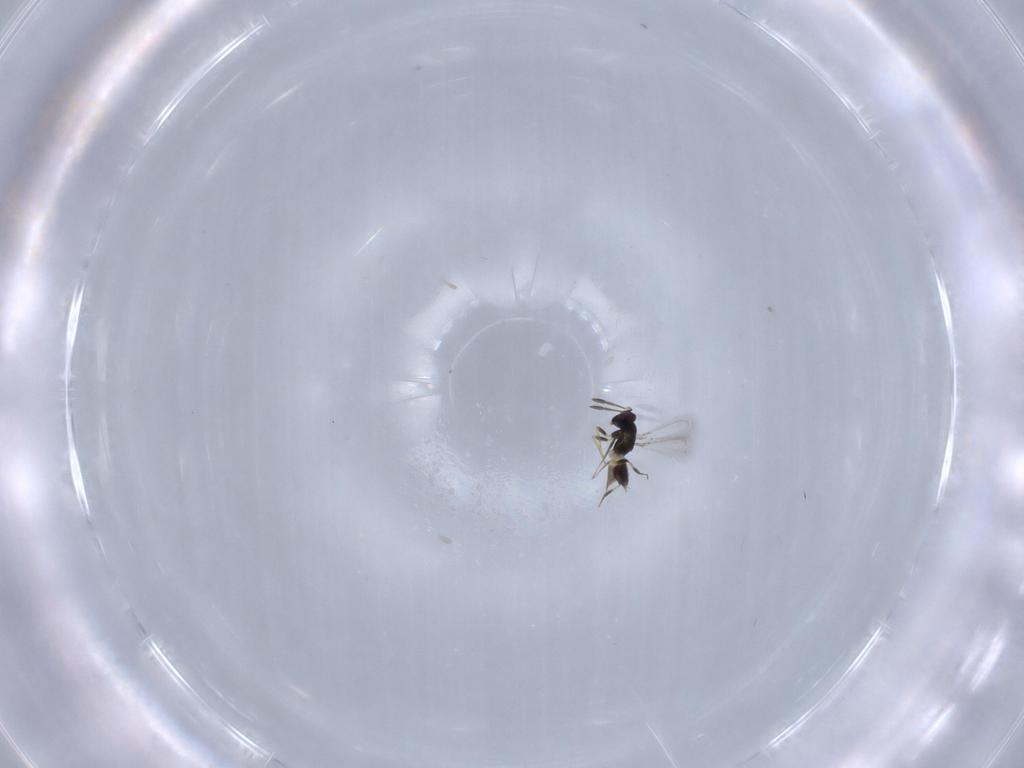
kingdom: Animalia
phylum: Arthropoda
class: Insecta
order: Hymenoptera
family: Mymaridae
